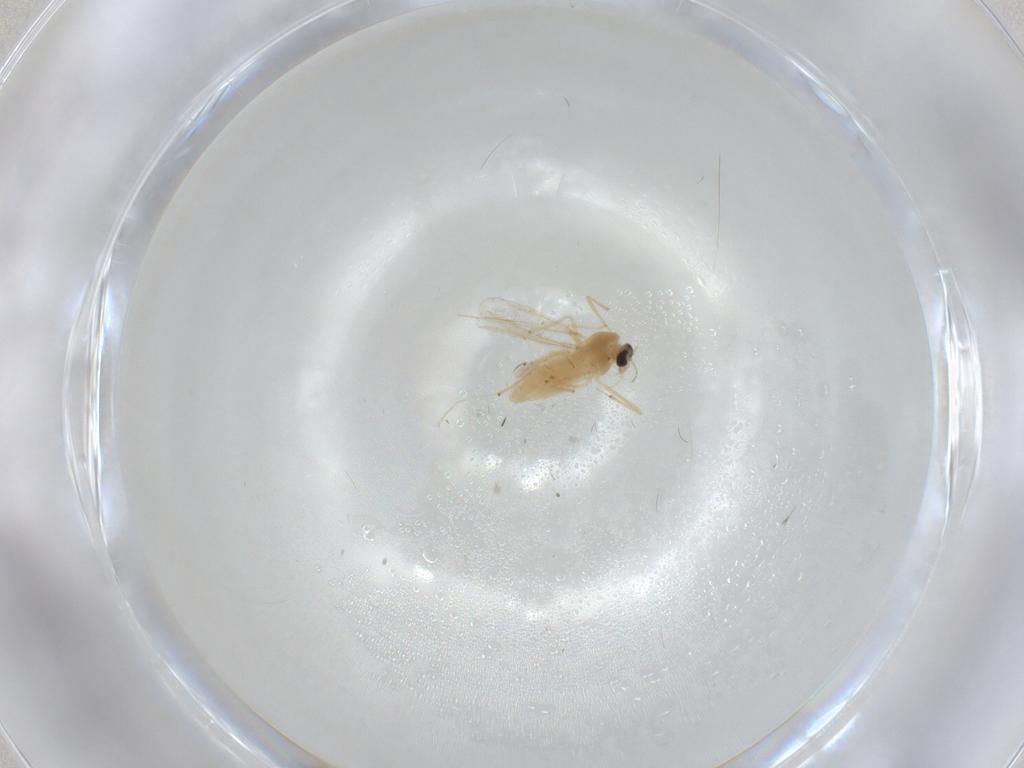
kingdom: Animalia
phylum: Arthropoda
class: Insecta
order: Diptera
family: Chironomidae
